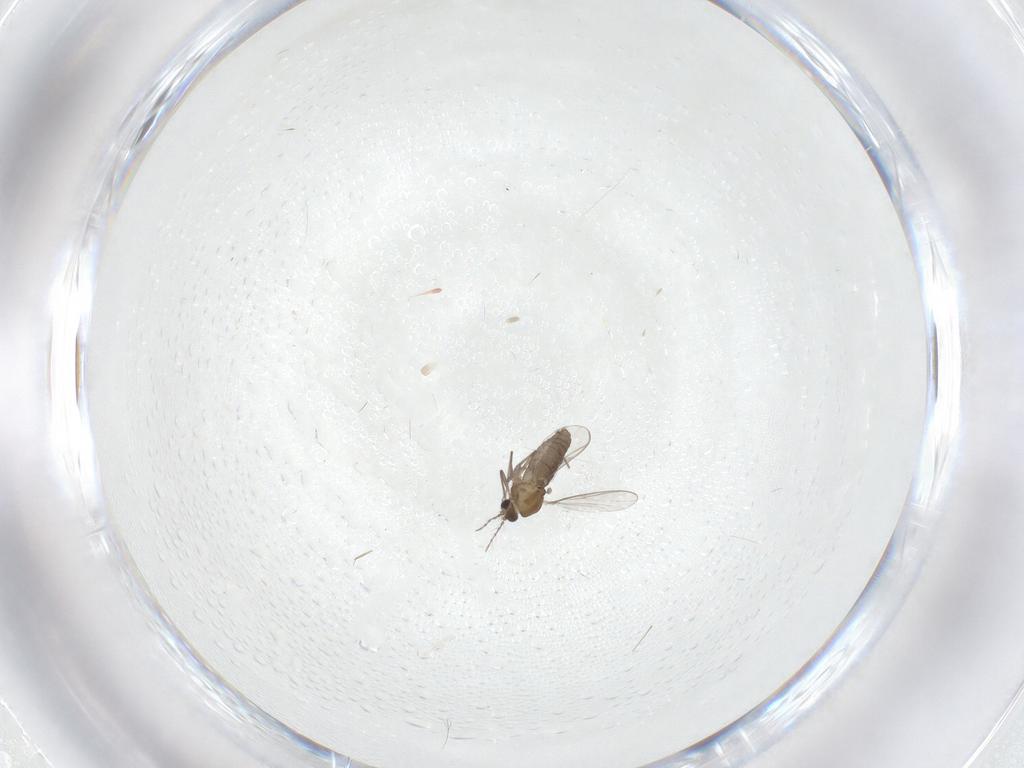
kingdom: Animalia
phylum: Arthropoda
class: Insecta
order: Diptera
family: Chironomidae
